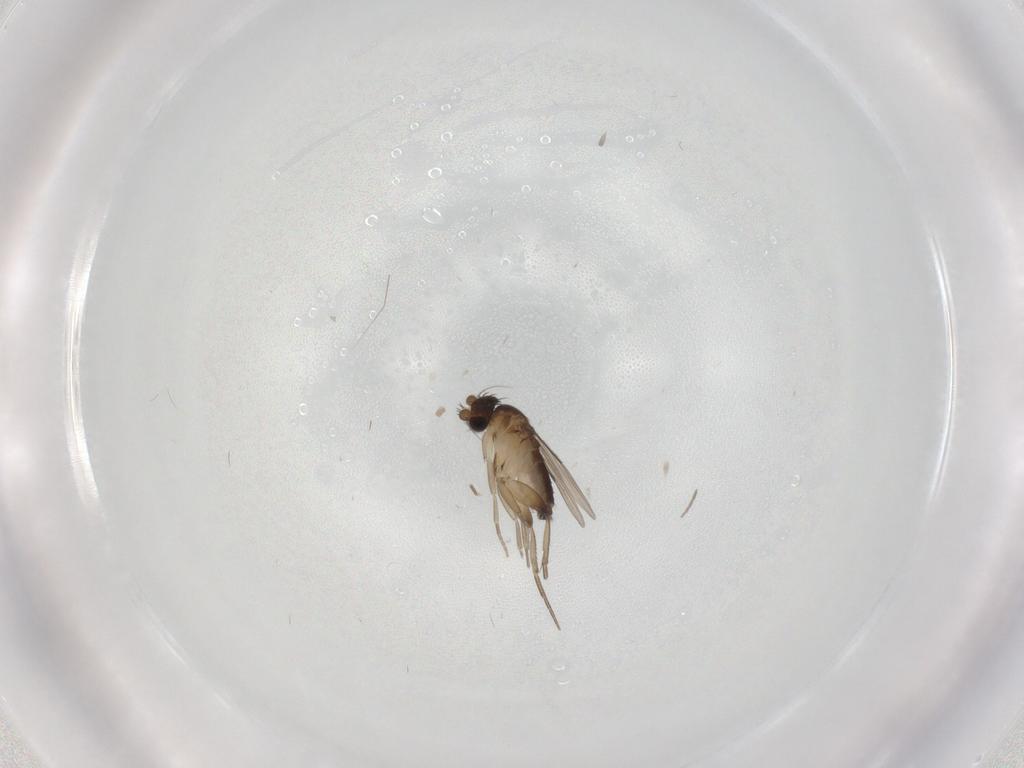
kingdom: Animalia
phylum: Arthropoda
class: Insecta
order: Diptera
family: Phoridae
